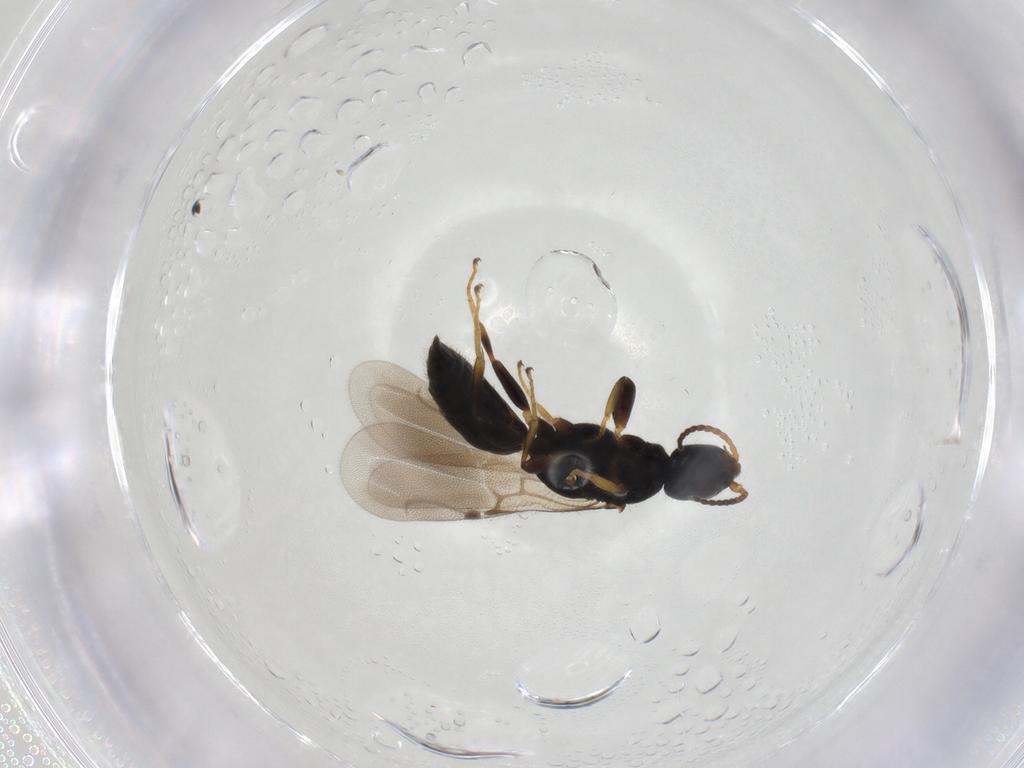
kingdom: Animalia
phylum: Arthropoda
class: Insecta
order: Hymenoptera
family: Bethylidae
